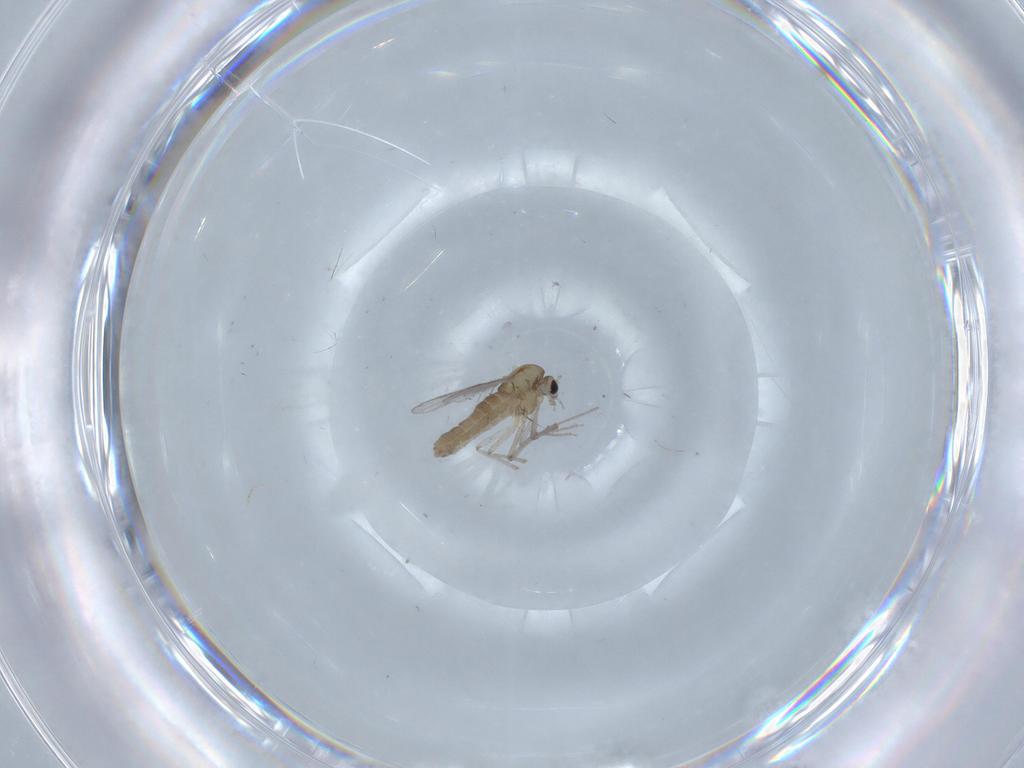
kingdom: Animalia
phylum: Arthropoda
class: Insecta
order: Diptera
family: Chironomidae
